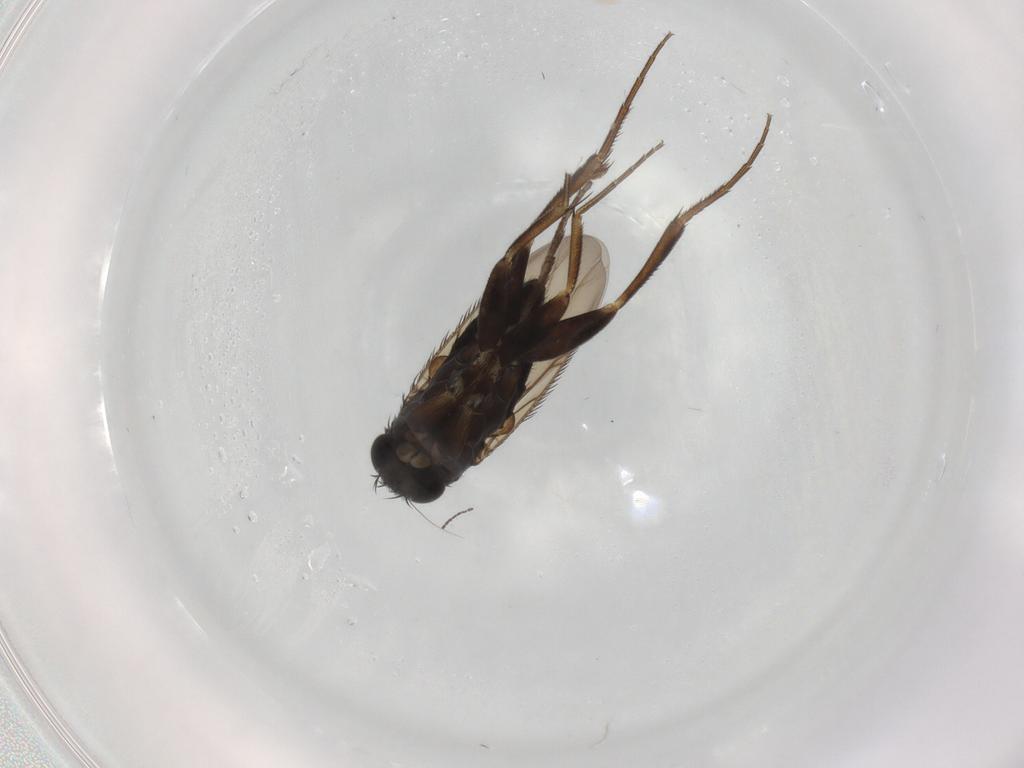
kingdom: Animalia
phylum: Arthropoda
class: Insecta
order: Diptera
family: Phoridae
